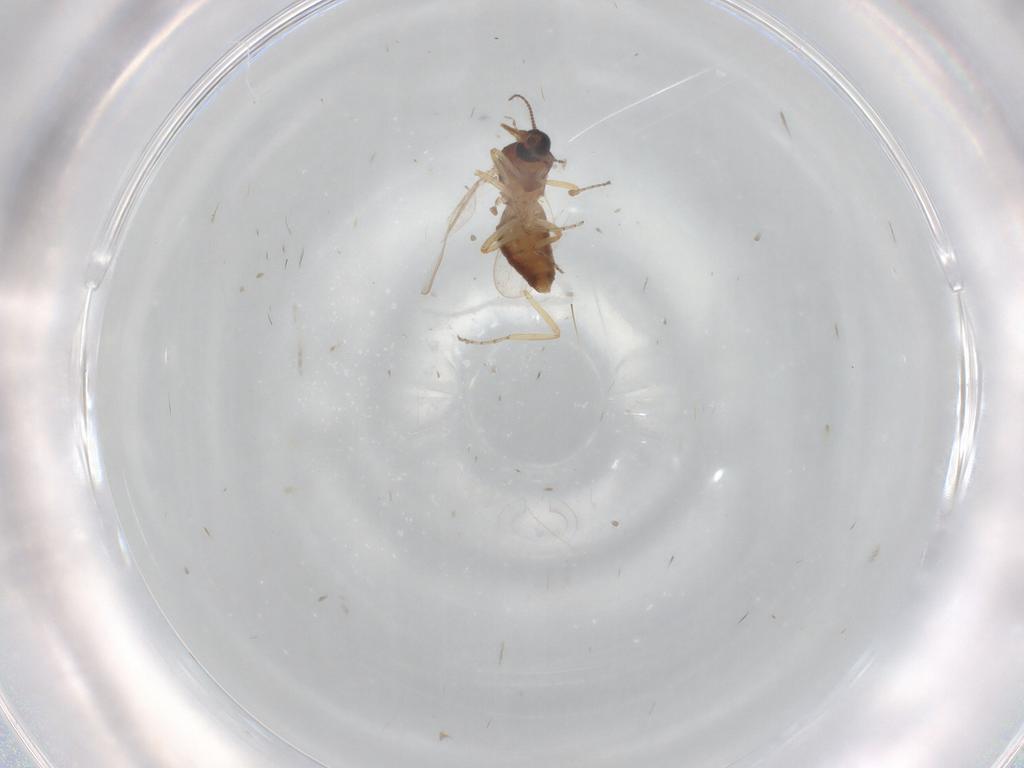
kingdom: Animalia
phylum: Arthropoda
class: Insecta
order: Diptera
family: Ceratopogonidae
